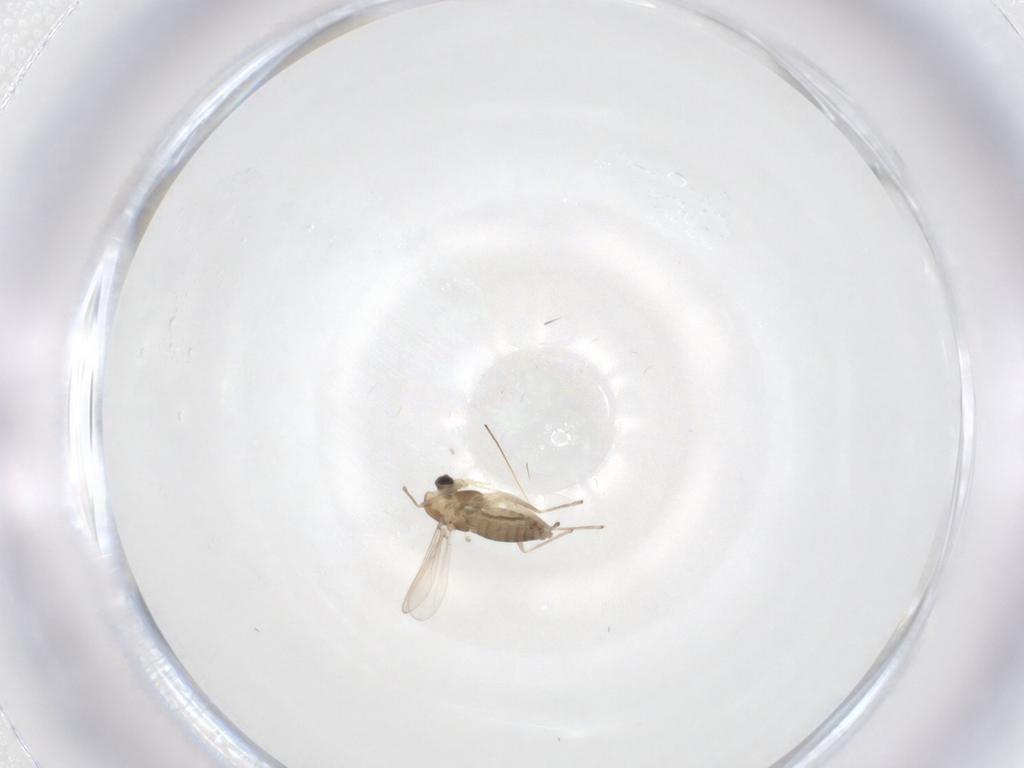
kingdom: Animalia
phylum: Arthropoda
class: Insecta
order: Diptera
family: Chironomidae
